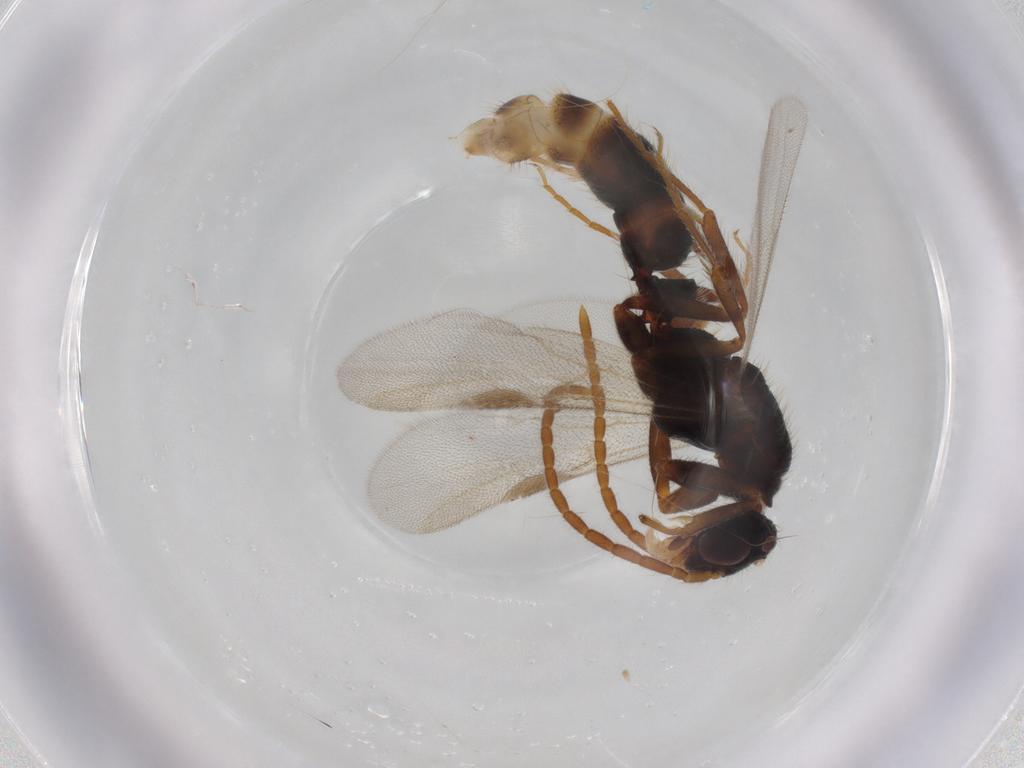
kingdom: Animalia
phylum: Arthropoda
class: Insecta
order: Hymenoptera
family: Formicidae
